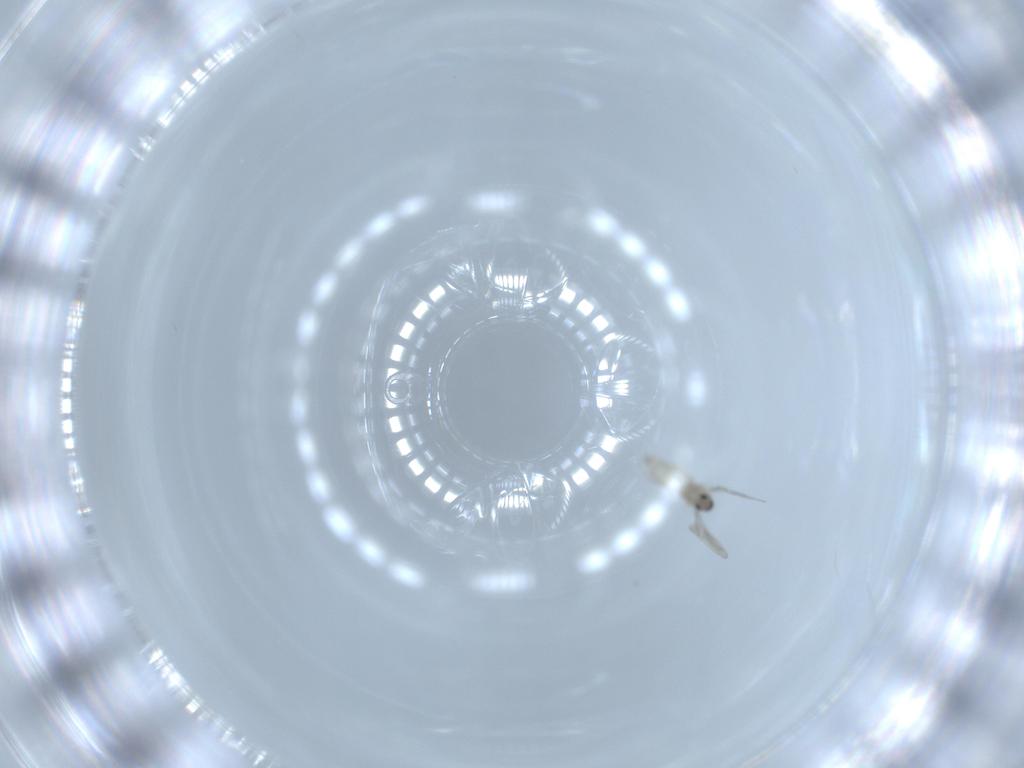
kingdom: Animalia
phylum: Arthropoda
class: Insecta
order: Diptera
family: Cecidomyiidae
